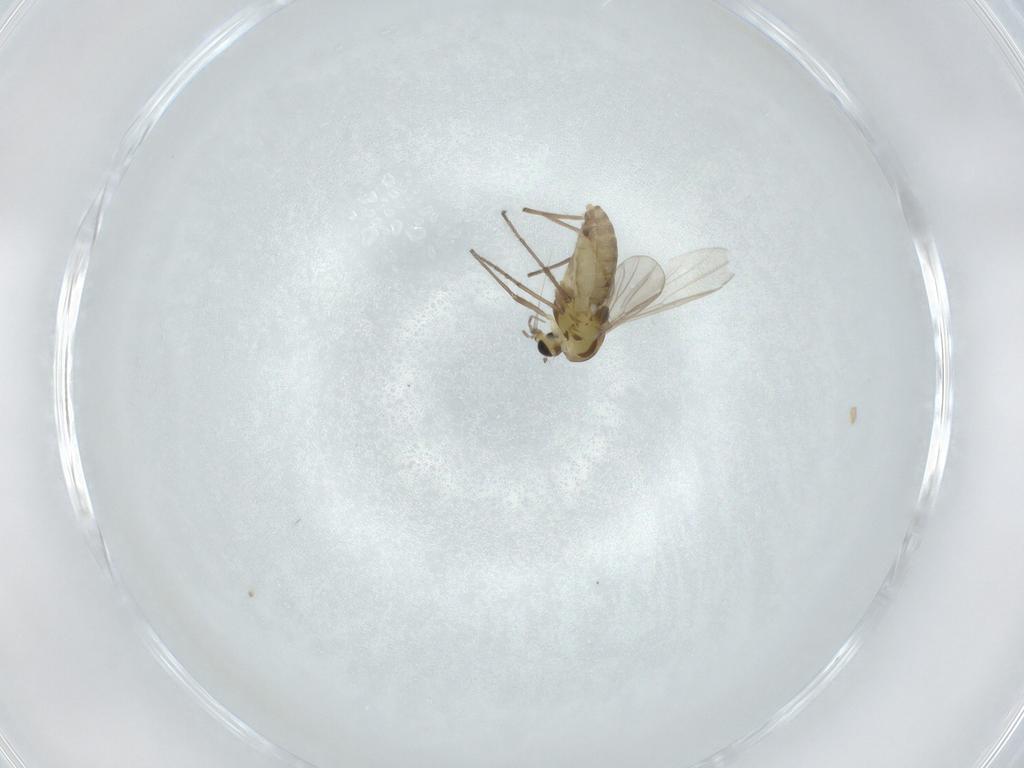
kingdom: Animalia
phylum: Arthropoda
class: Insecta
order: Diptera
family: Chironomidae
